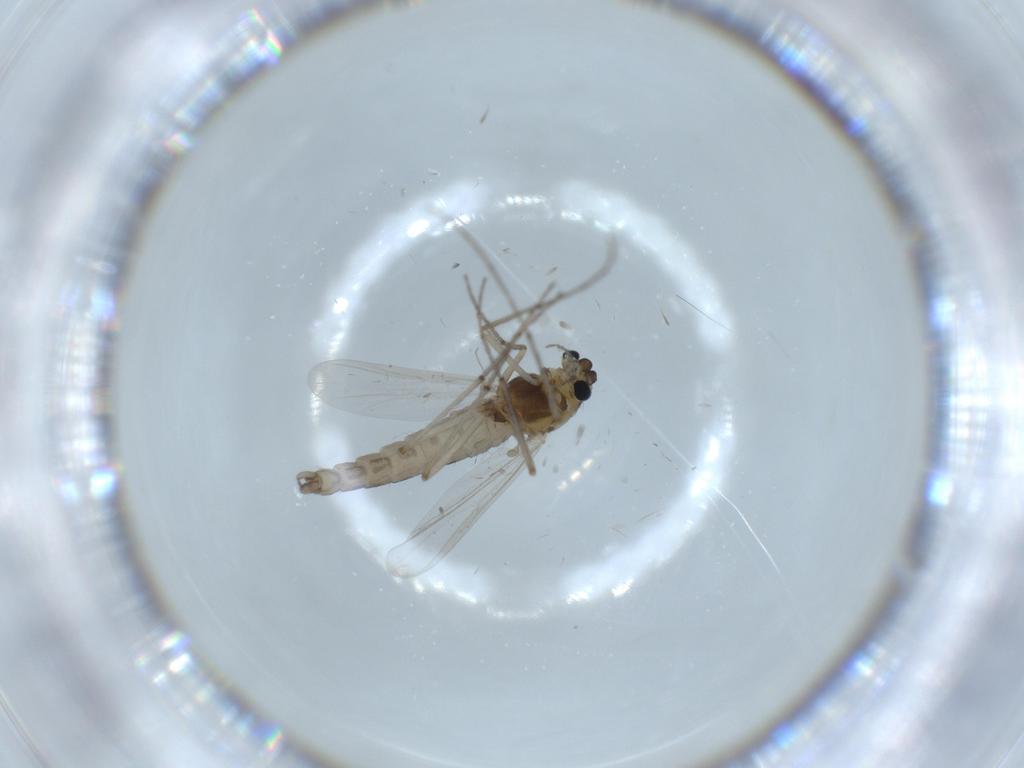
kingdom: Animalia
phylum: Arthropoda
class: Insecta
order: Diptera
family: Chironomidae
